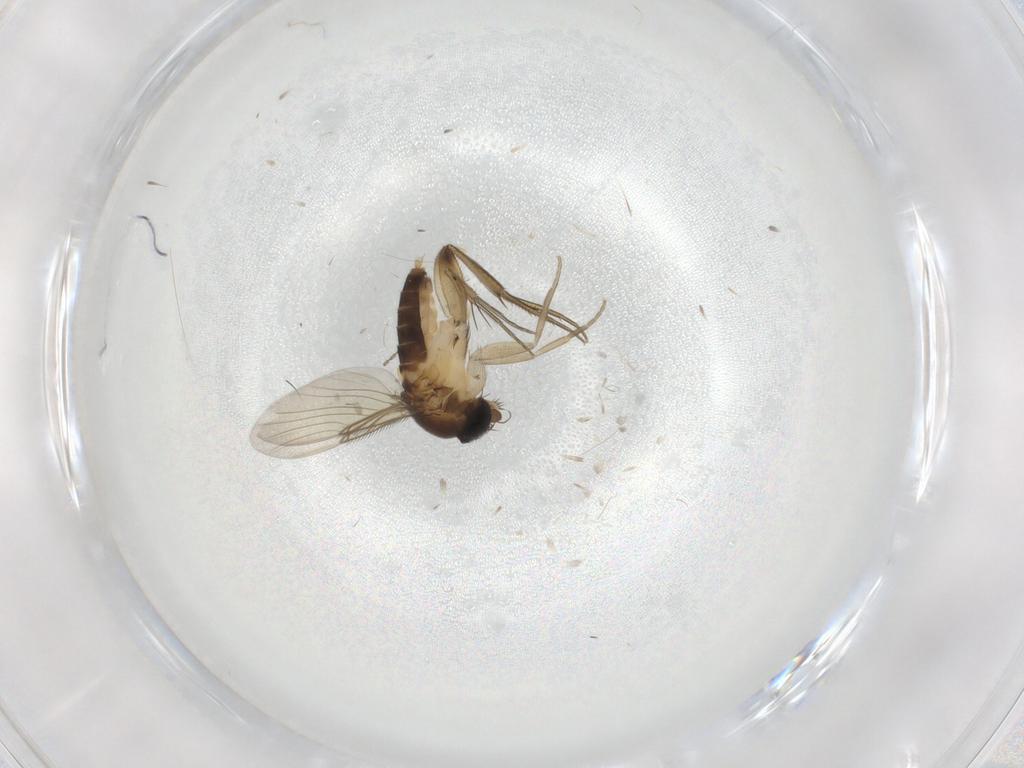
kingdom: Animalia
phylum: Arthropoda
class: Insecta
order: Diptera
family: Phoridae
